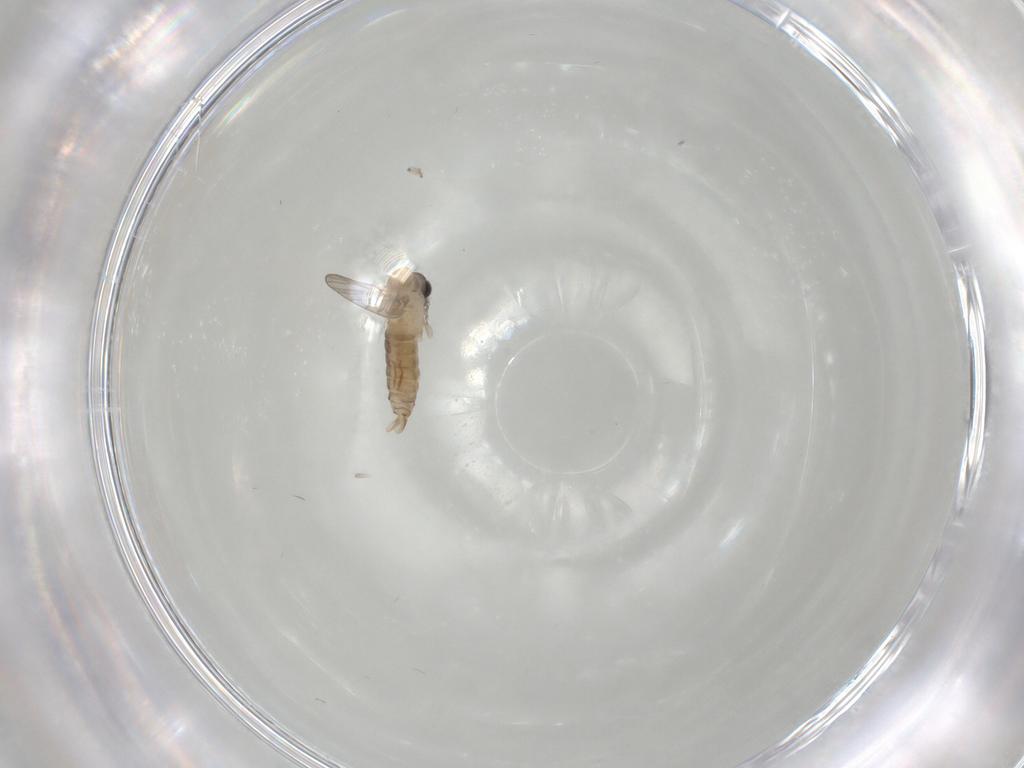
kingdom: Animalia
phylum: Arthropoda
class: Insecta
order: Diptera
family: Psychodidae
